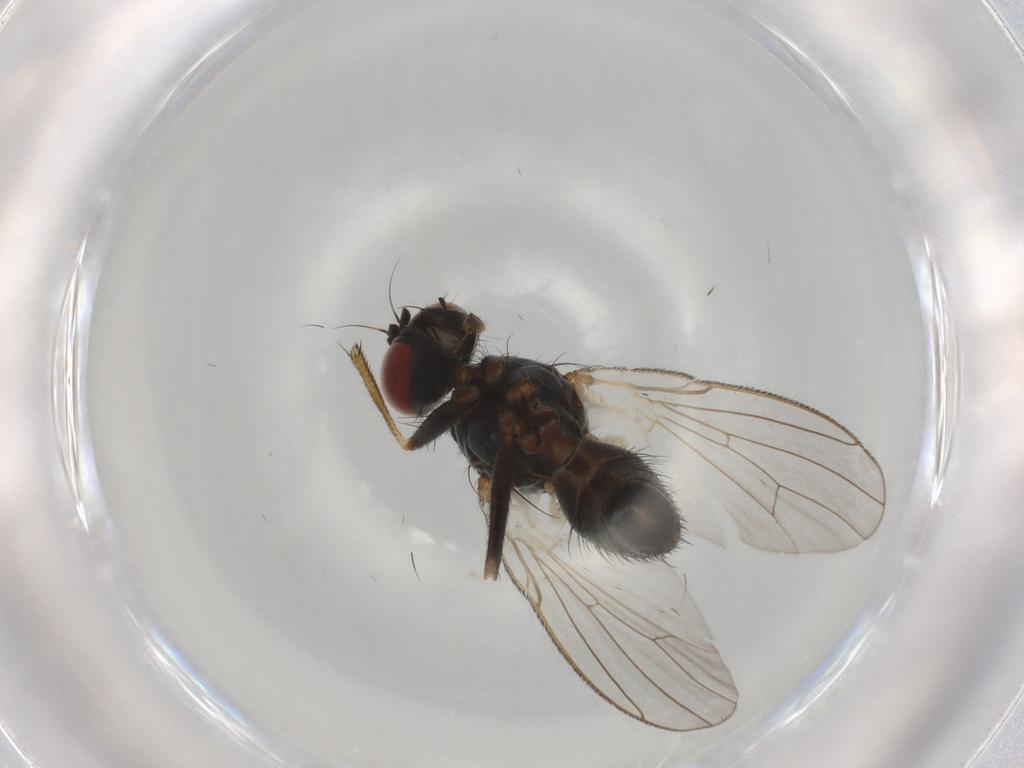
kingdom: Animalia
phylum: Arthropoda
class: Insecta
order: Diptera
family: Muscidae
